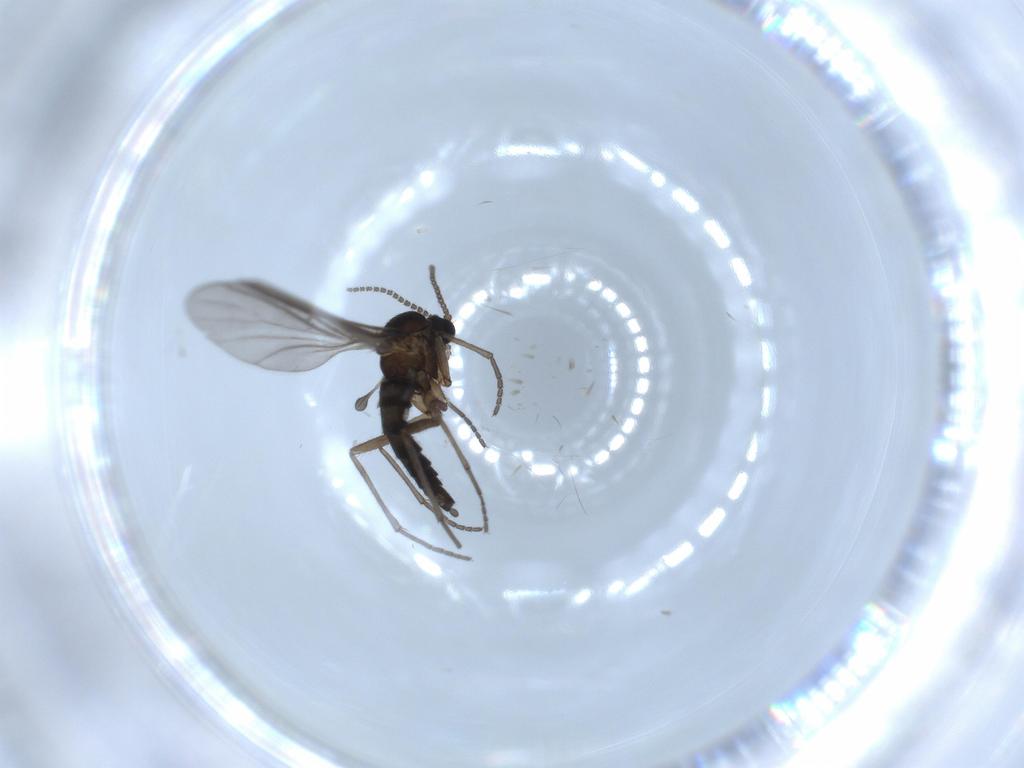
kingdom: Animalia
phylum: Arthropoda
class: Insecta
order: Diptera
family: Sciaridae
